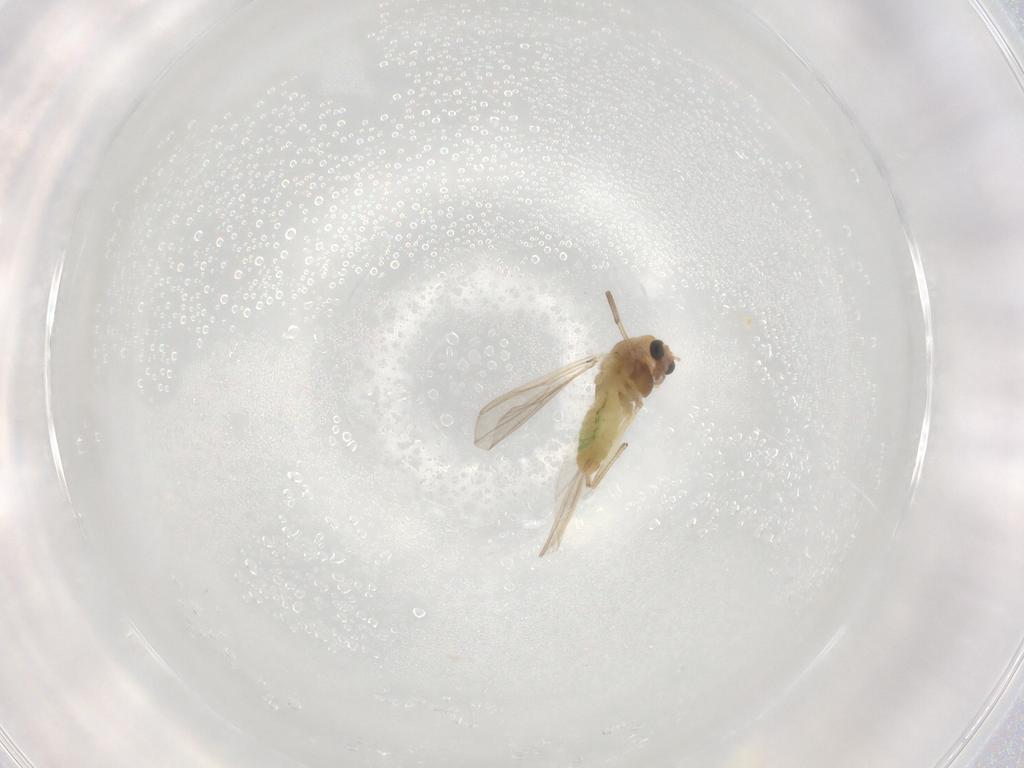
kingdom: Animalia
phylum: Arthropoda
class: Insecta
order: Diptera
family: Chironomidae
